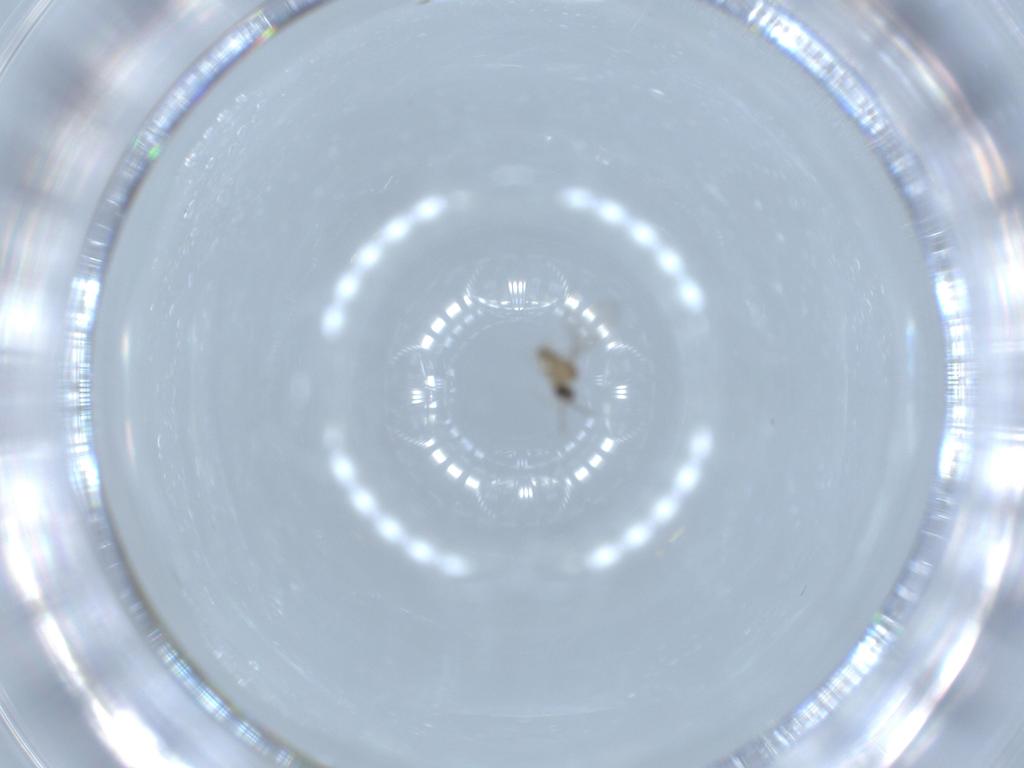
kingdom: Animalia
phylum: Arthropoda
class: Insecta
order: Diptera
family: Cecidomyiidae
